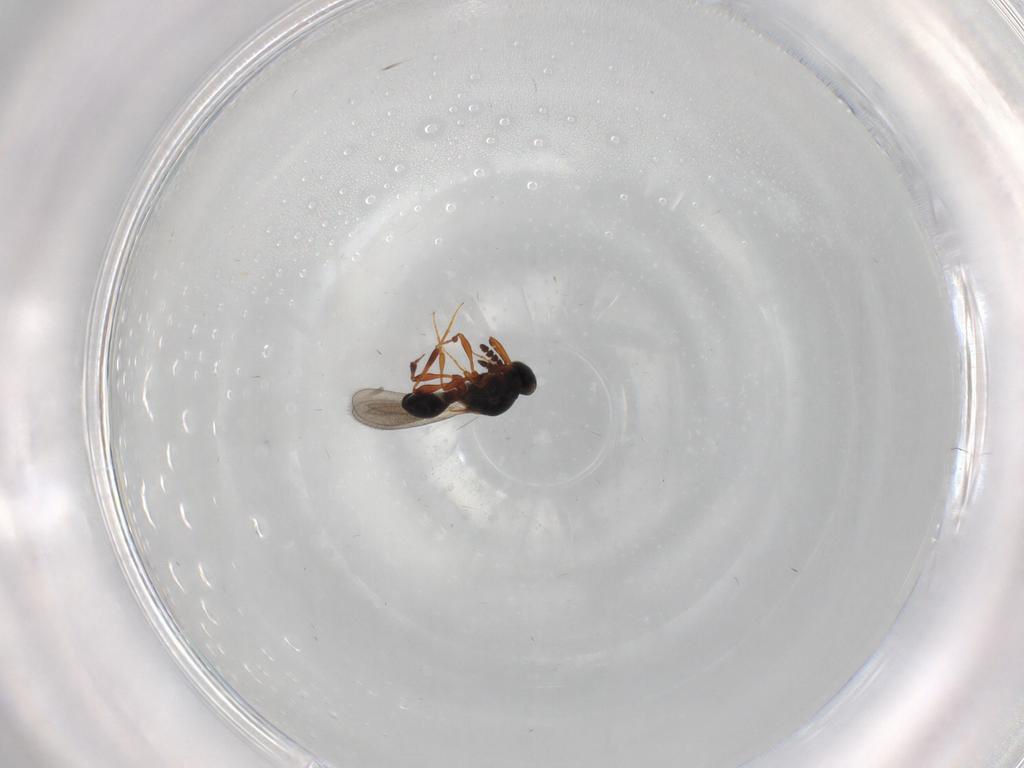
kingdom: Animalia
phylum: Arthropoda
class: Insecta
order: Hymenoptera
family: Platygastridae
